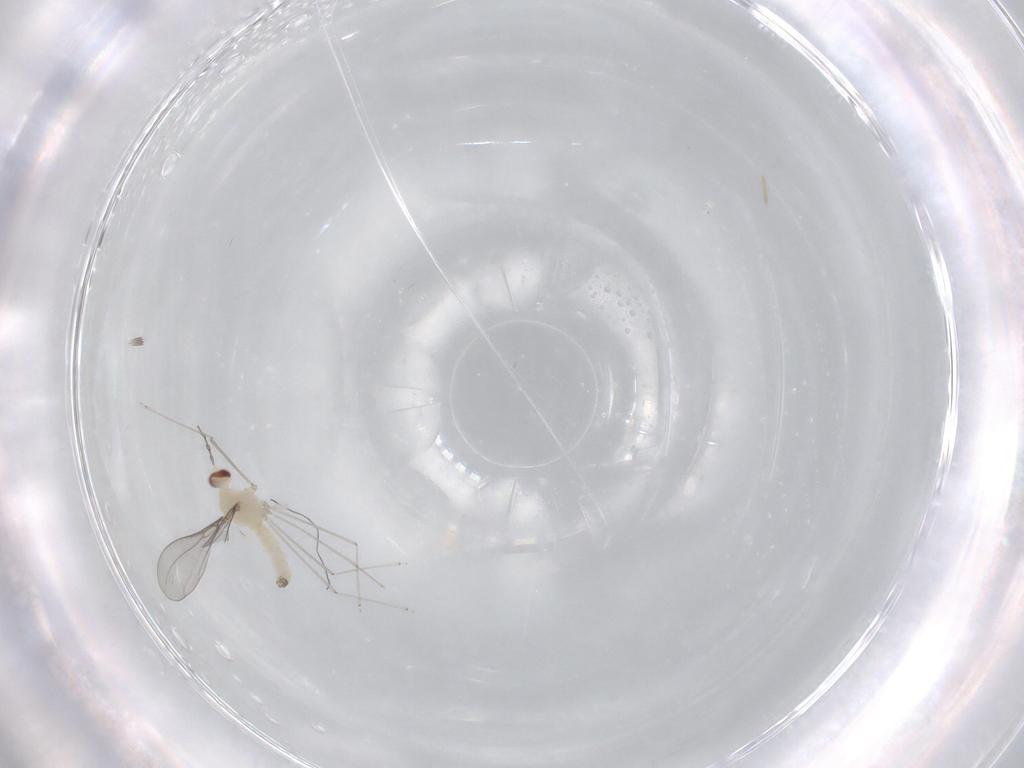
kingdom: Animalia
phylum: Arthropoda
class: Insecta
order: Diptera
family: Cecidomyiidae
